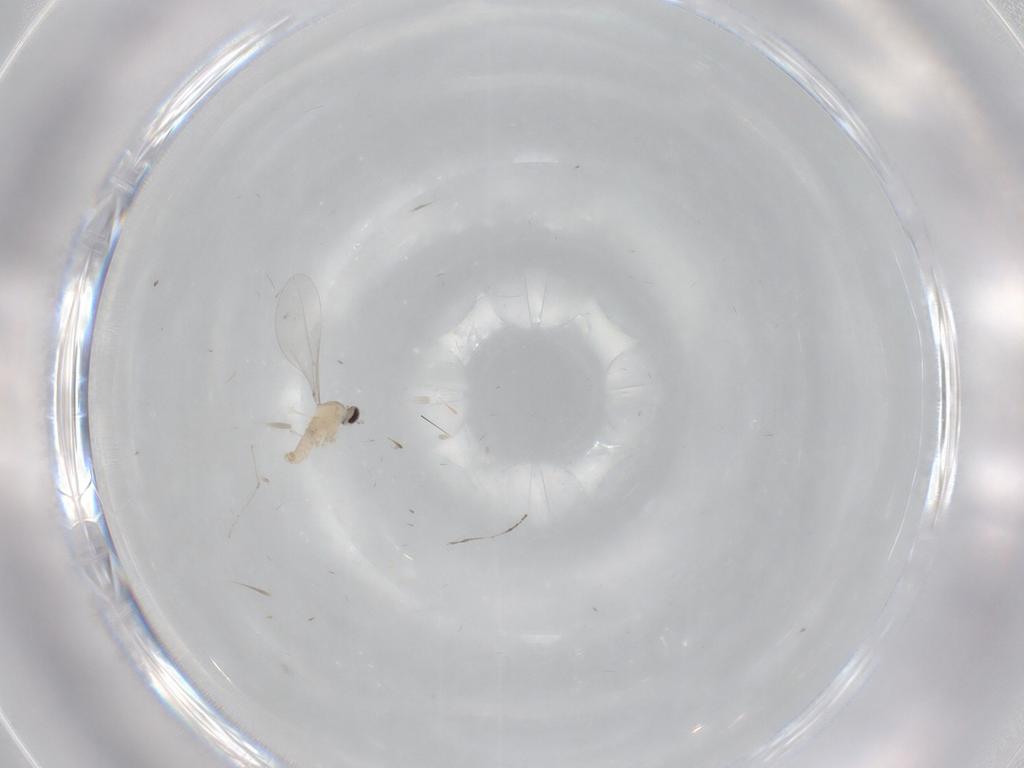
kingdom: Animalia
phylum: Arthropoda
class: Insecta
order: Diptera
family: Cecidomyiidae
